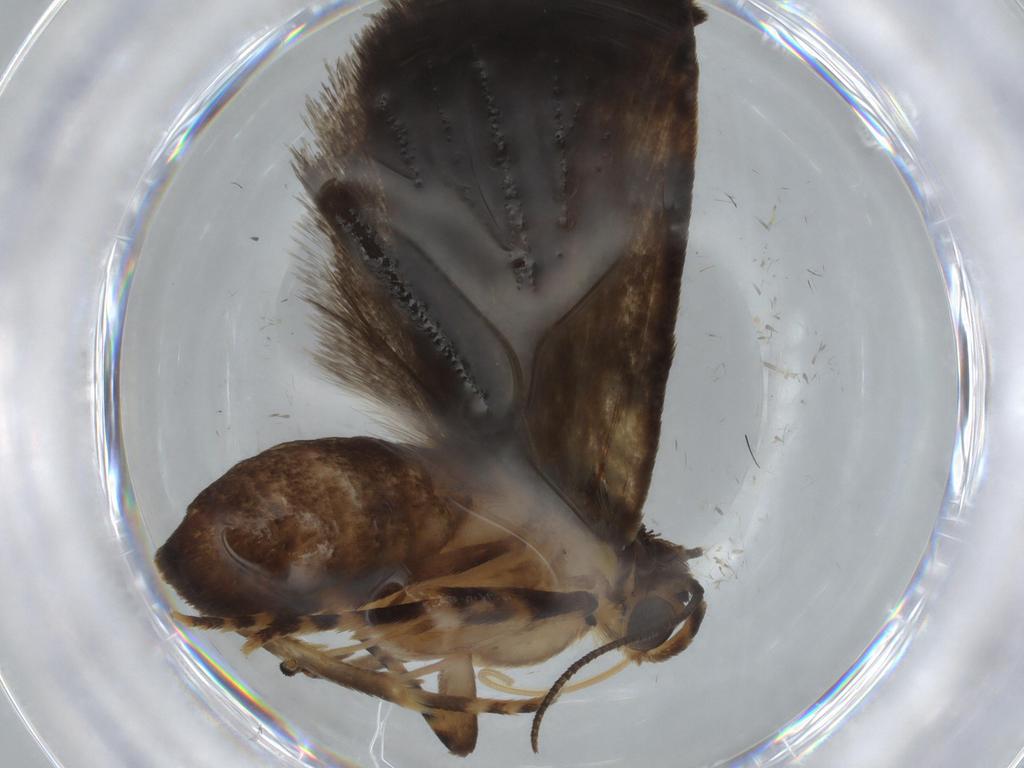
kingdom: Animalia
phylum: Arthropoda
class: Insecta
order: Lepidoptera
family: Immidae
